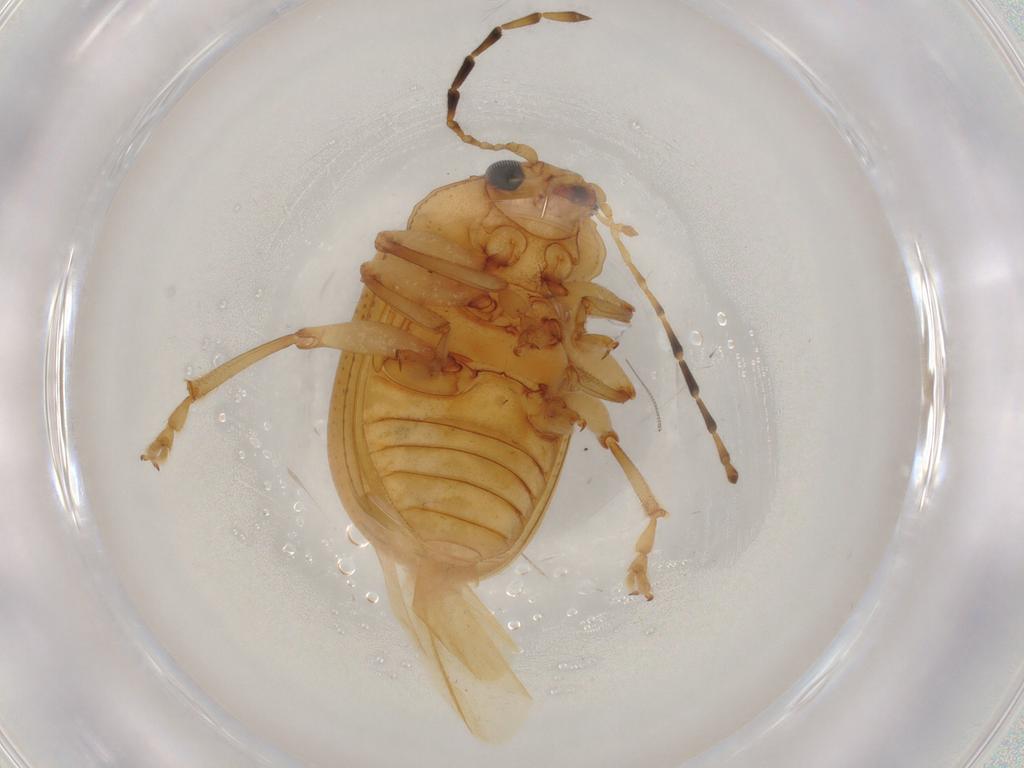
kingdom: Animalia
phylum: Arthropoda
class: Insecta
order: Coleoptera
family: Chrysomelidae
